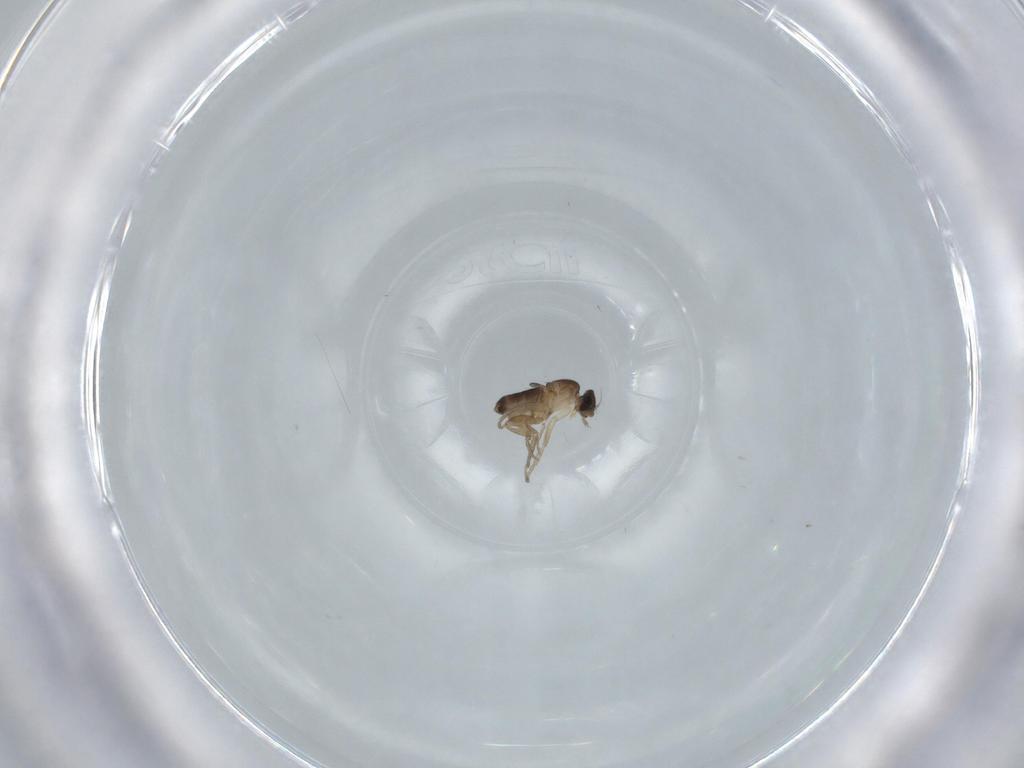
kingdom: Animalia
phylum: Arthropoda
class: Insecta
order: Diptera
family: Phoridae
